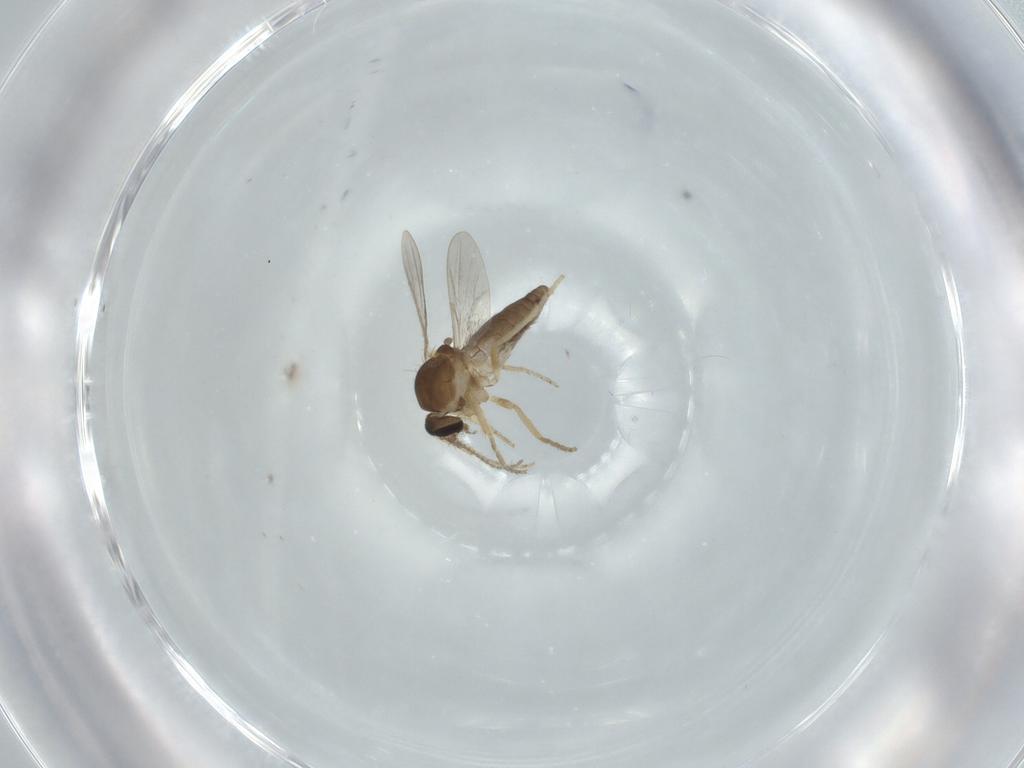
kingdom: Animalia
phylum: Arthropoda
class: Insecta
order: Diptera
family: Ceratopogonidae
